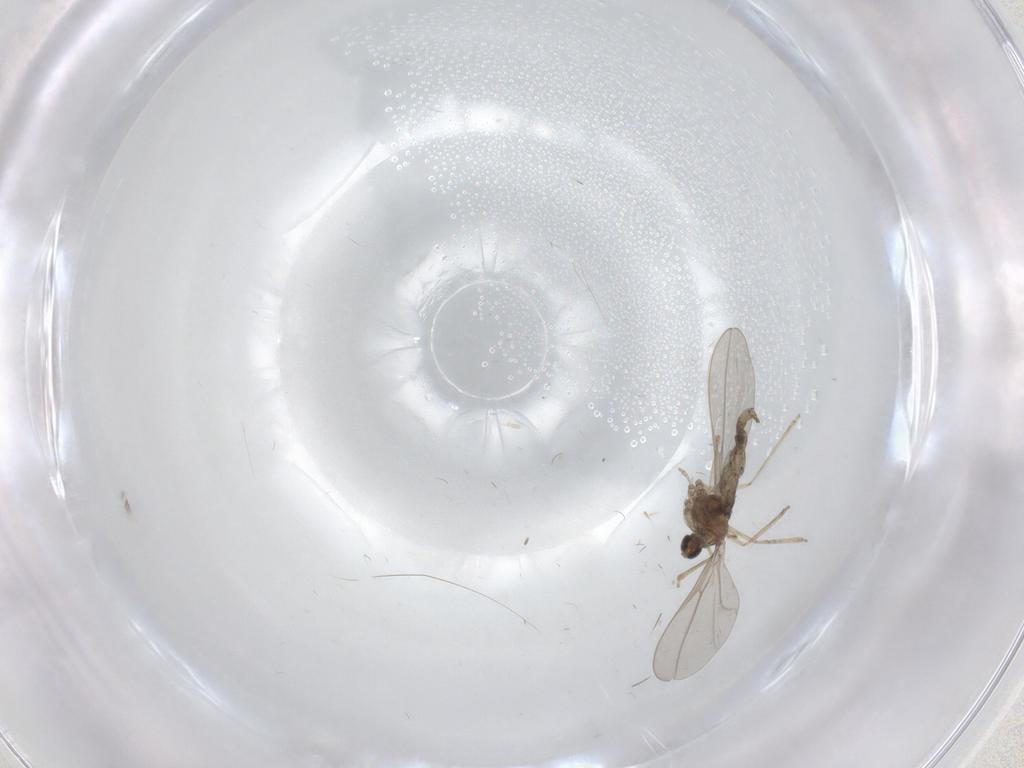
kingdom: Animalia
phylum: Arthropoda
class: Insecta
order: Diptera
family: Cecidomyiidae
